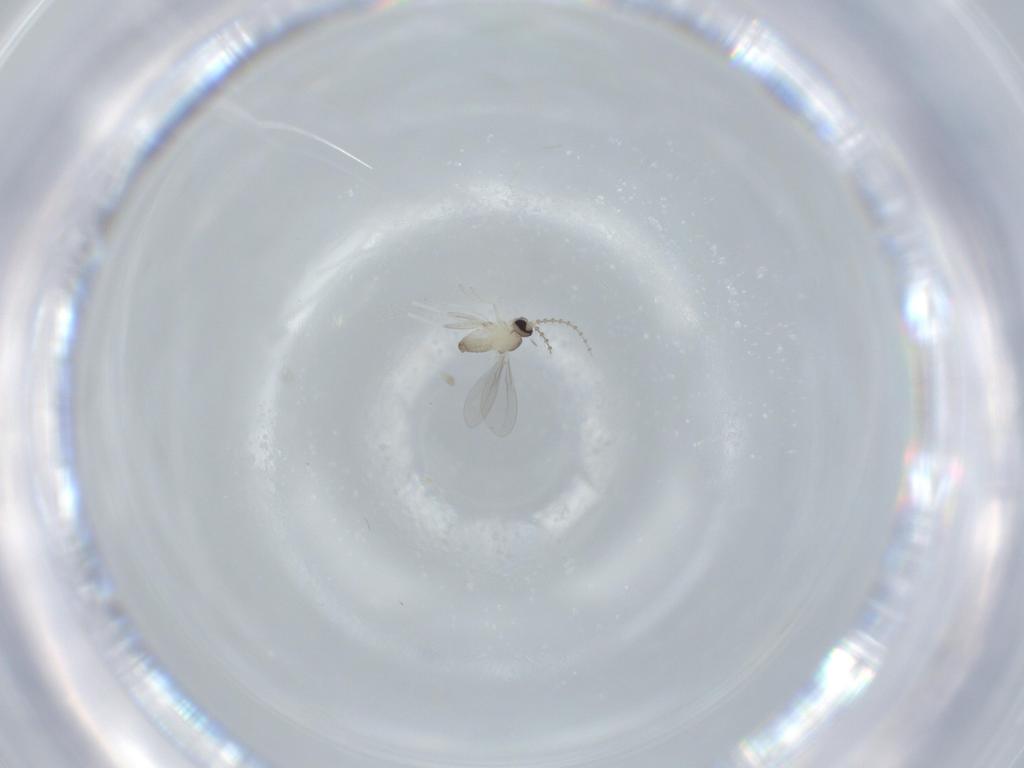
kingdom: Animalia
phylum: Arthropoda
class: Insecta
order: Diptera
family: Cecidomyiidae
